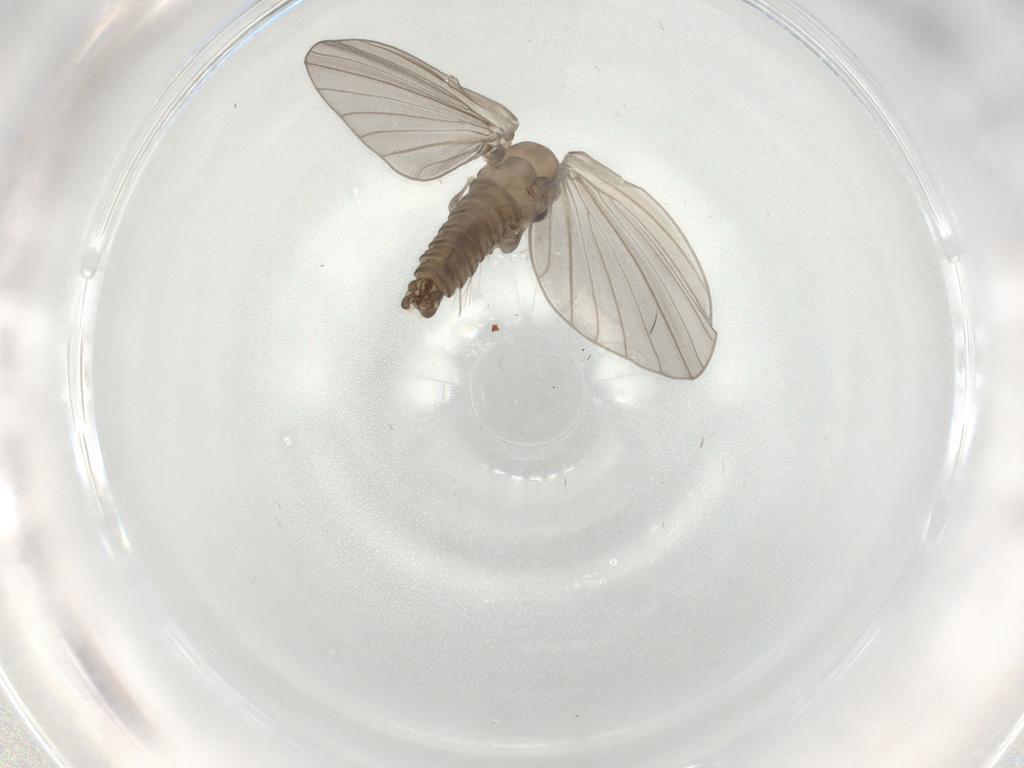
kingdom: Animalia
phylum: Arthropoda
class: Insecta
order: Diptera
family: Psychodidae
